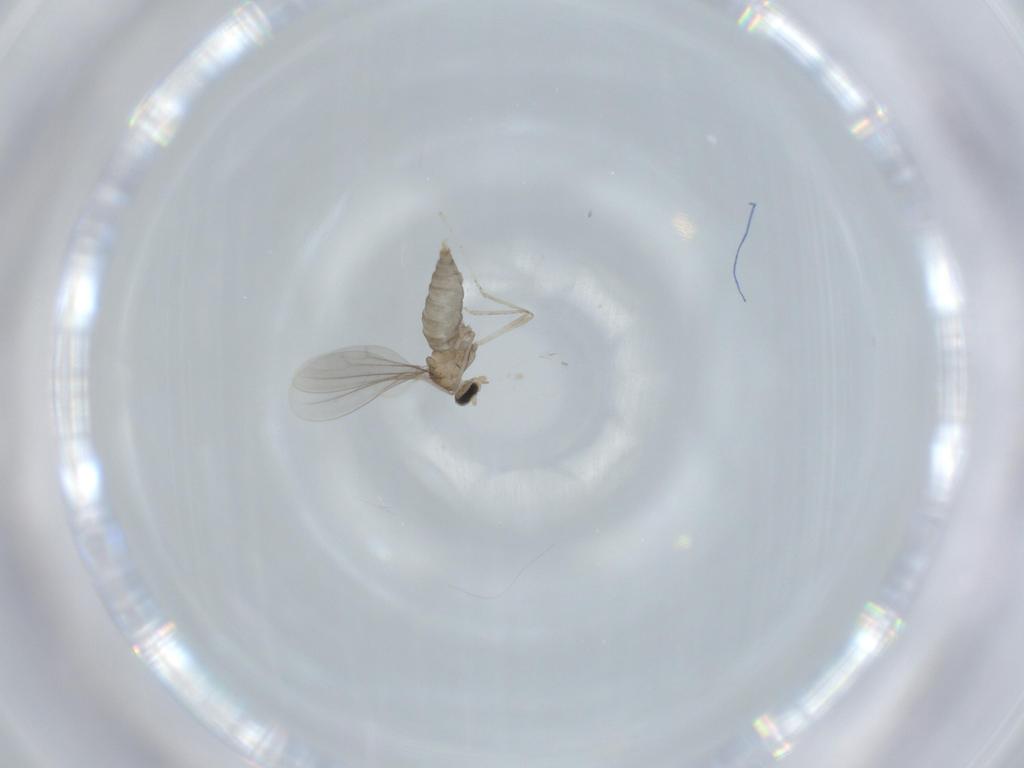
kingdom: Animalia
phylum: Arthropoda
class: Insecta
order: Diptera
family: Cecidomyiidae
